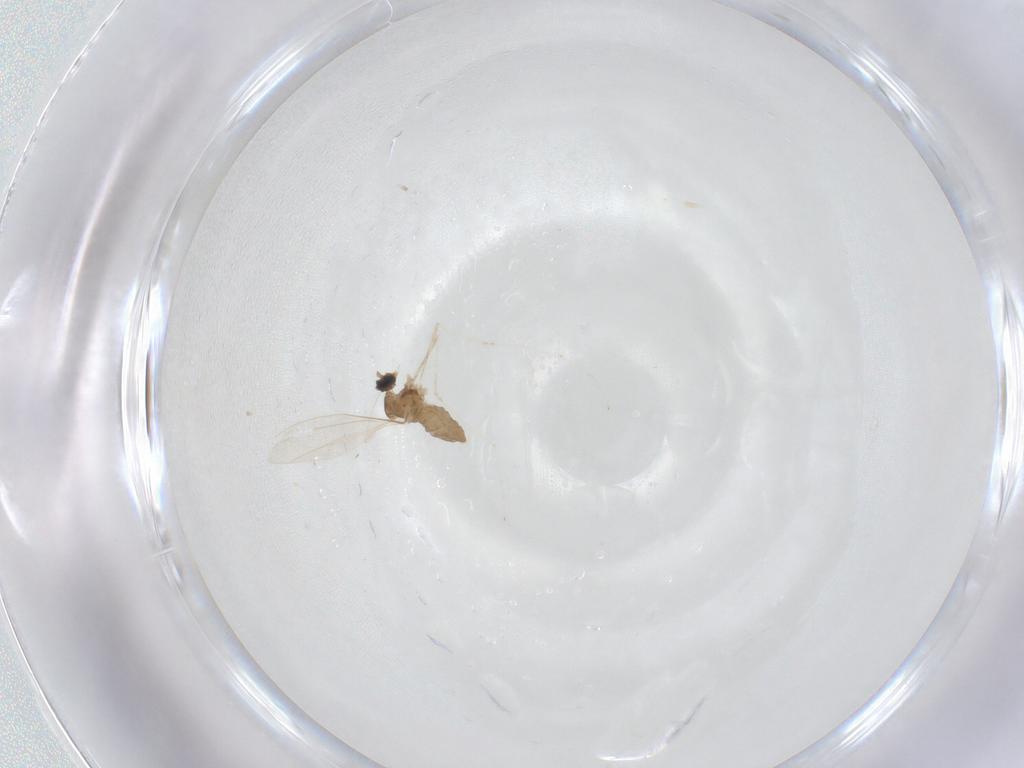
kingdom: Animalia
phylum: Arthropoda
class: Insecta
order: Diptera
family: Cecidomyiidae
